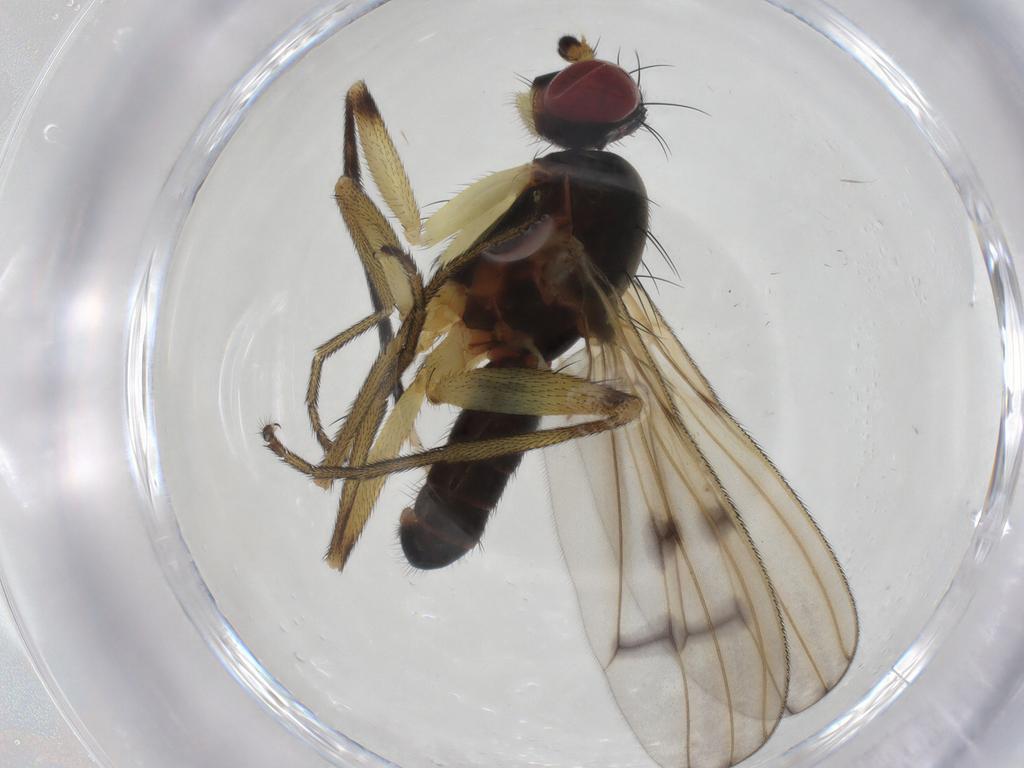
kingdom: Animalia
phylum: Arthropoda
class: Insecta
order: Diptera
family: Sciomyzidae
